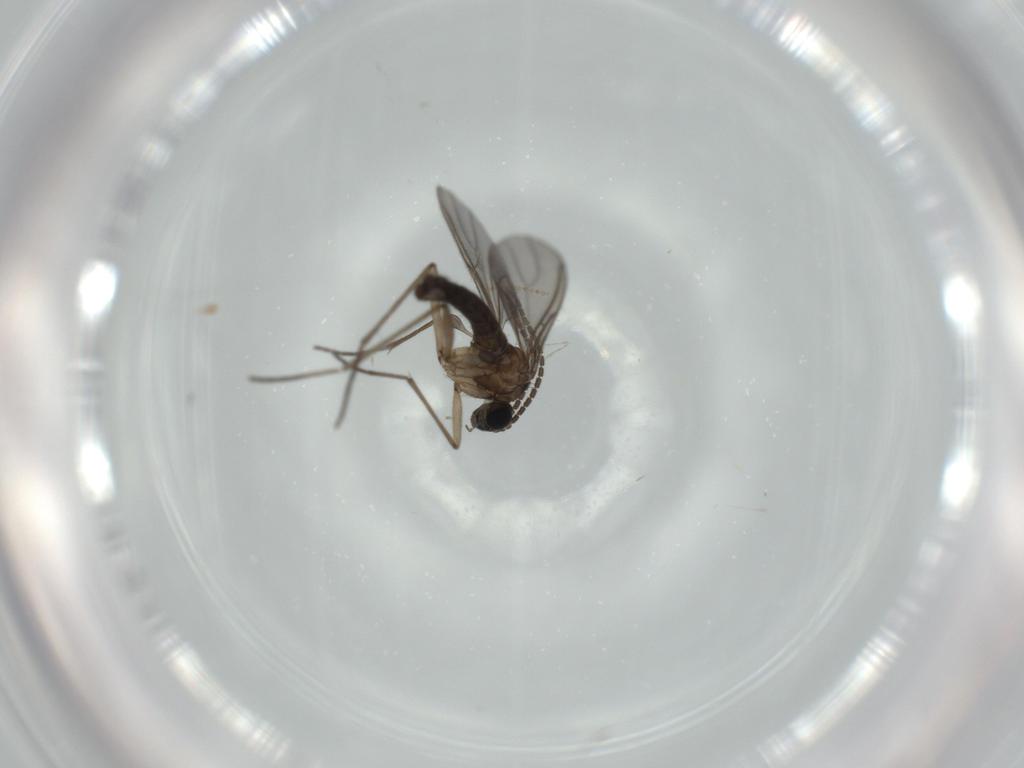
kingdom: Animalia
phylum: Arthropoda
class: Insecta
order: Diptera
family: Sciaridae
